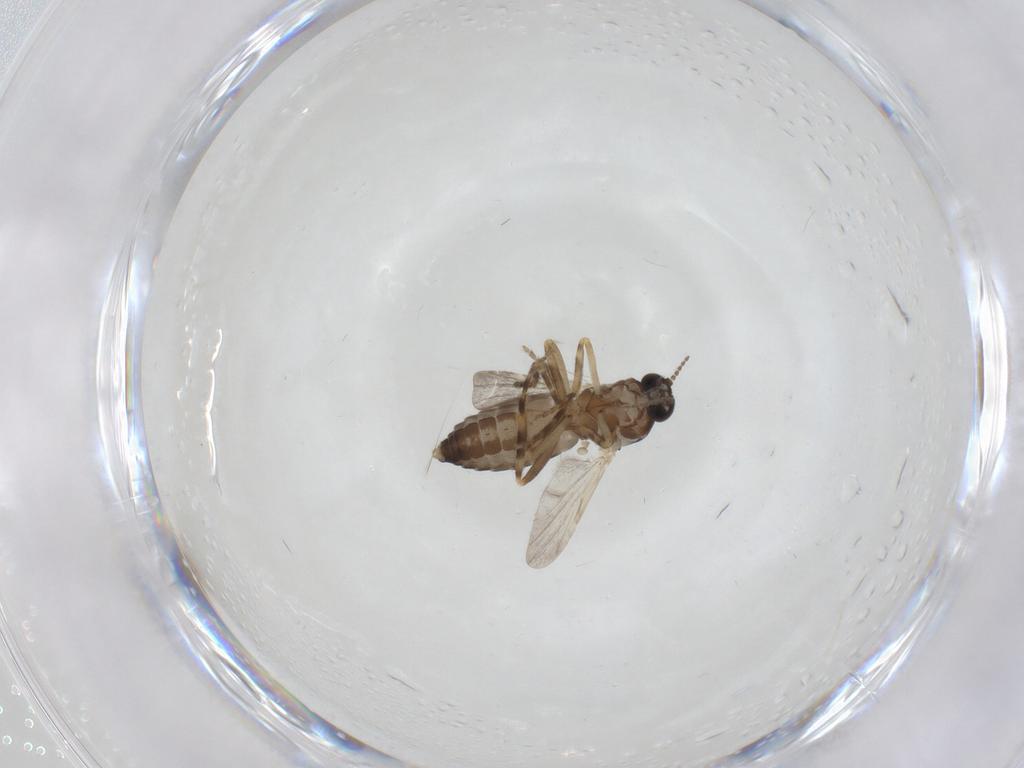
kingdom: Animalia
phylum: Arthropoda
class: Insecta
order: Diptera
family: Ceratopogonidae
